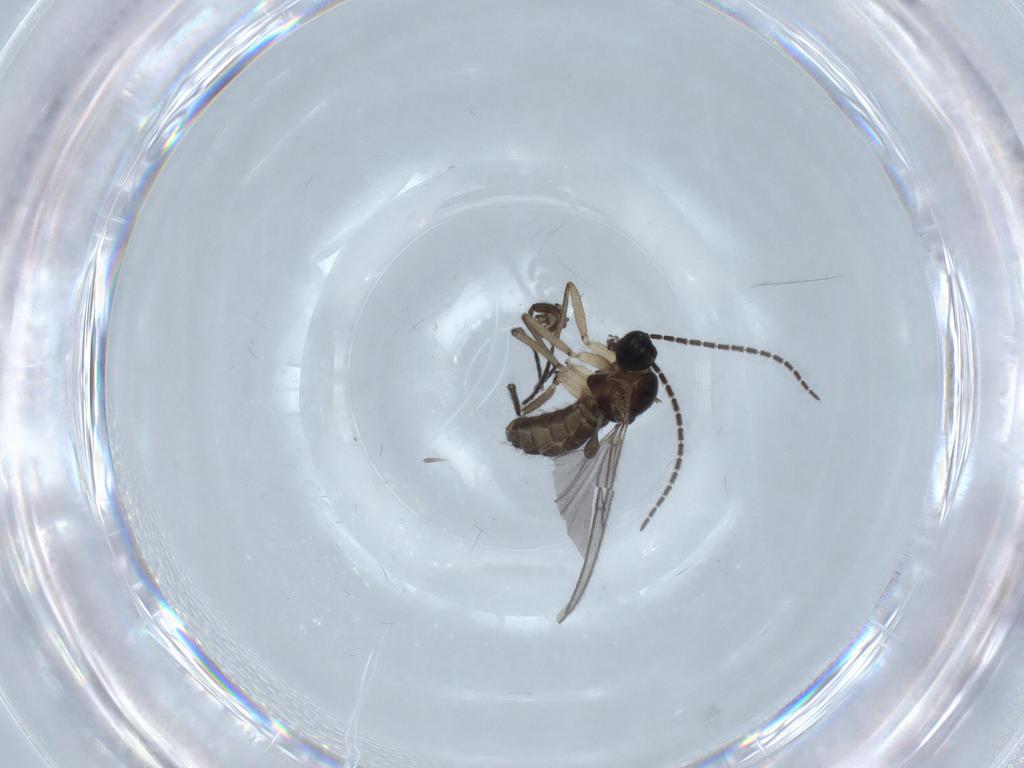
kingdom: Animalia
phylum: Arthropoda
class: Insecta
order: Diptera
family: Sciaridae
